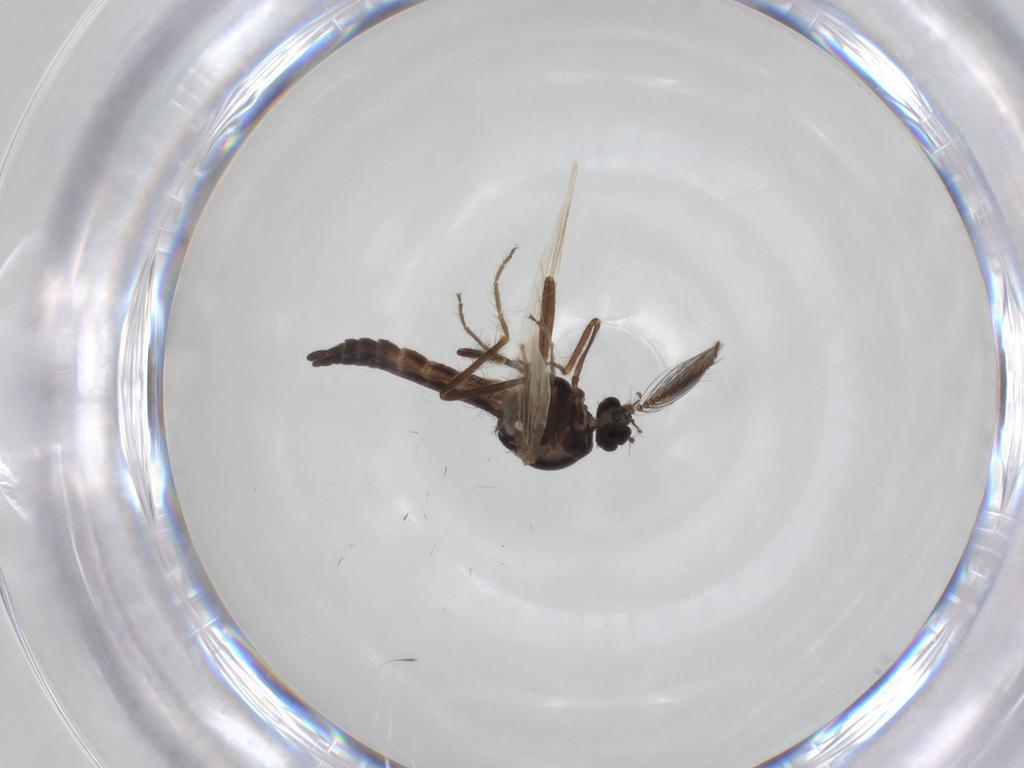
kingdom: Animalia
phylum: Arthropoda
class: Insecta
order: Diptera
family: Ceratopogonidae
